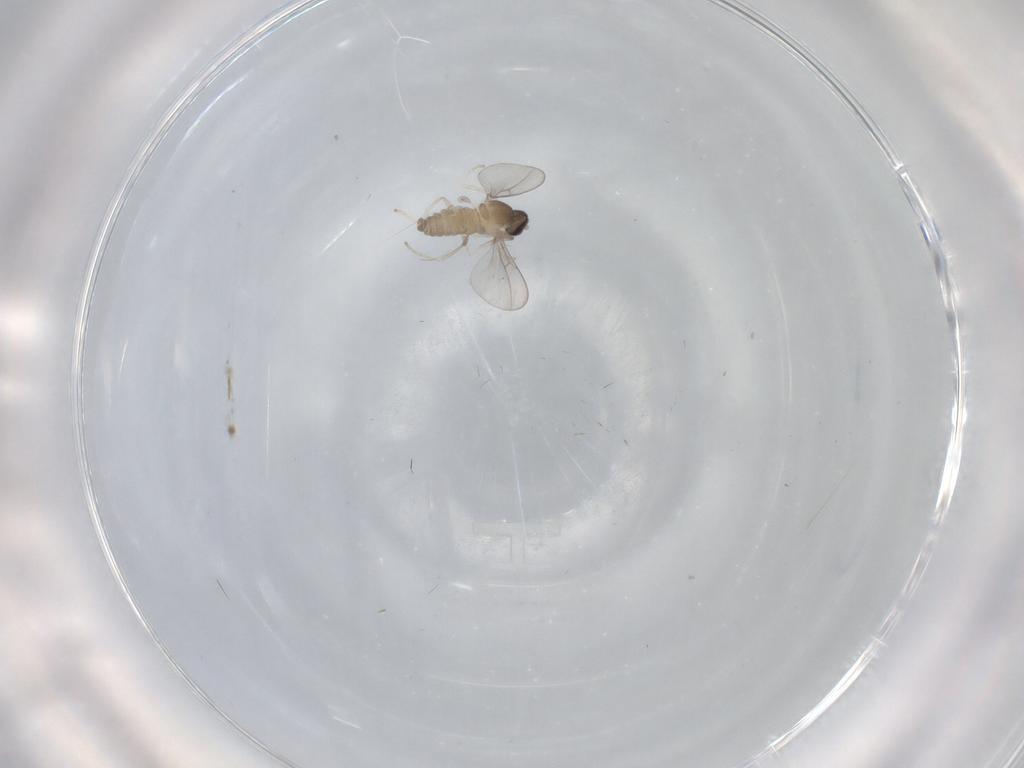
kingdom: Animalia
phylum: Arthropoda
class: Insecta
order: Diptera
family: Cecidomyiidae
